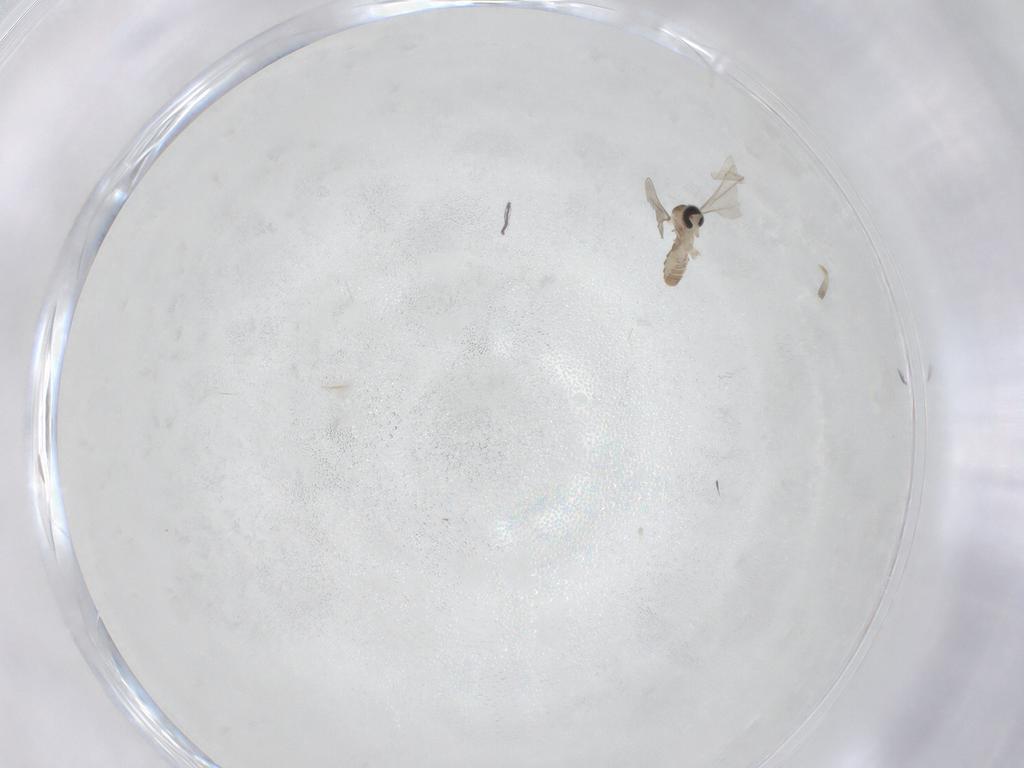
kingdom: Animalia
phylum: Arthropoda
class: Insecta
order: Diptera
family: Cecidomyiidae
